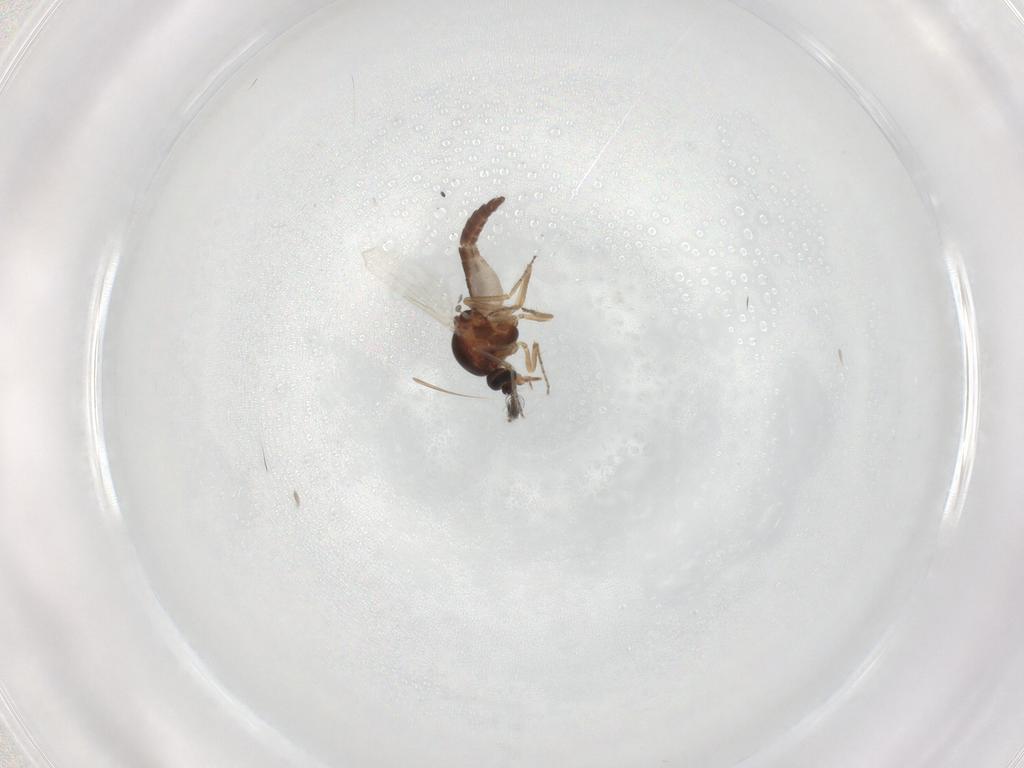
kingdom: Animalia
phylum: Arthropoda
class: Insecta
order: Diptera
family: Ceratopogonidae
